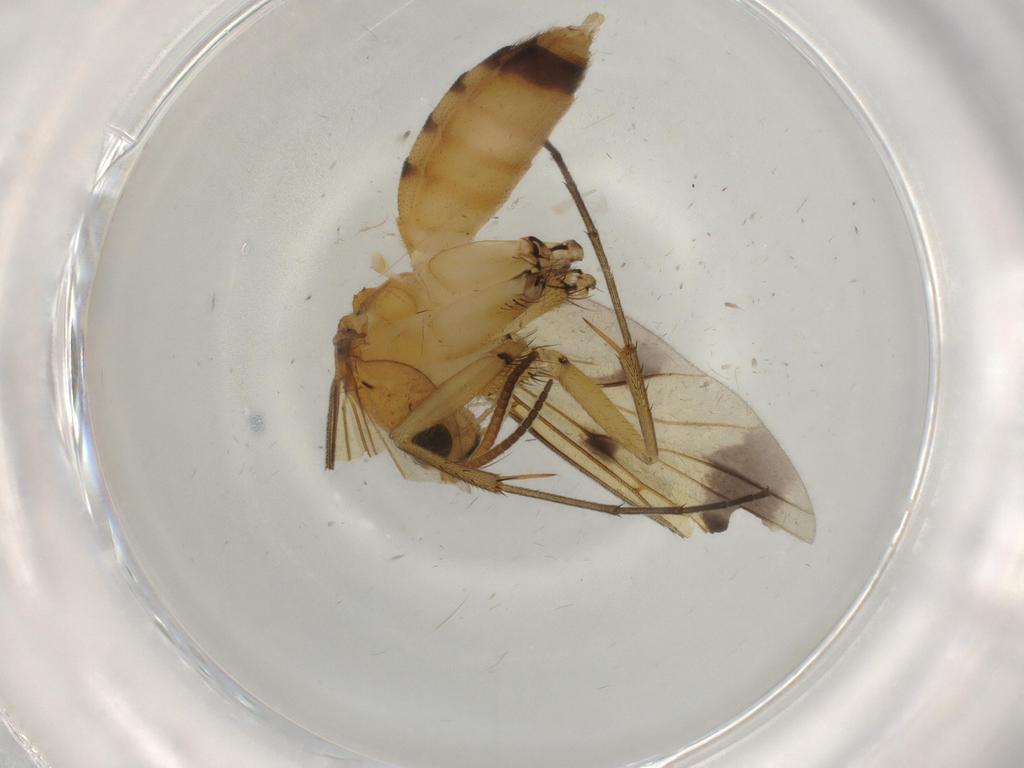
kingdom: Animalia
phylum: Arthropoda
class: Insecta
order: Diptera
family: Mycetophilidae
